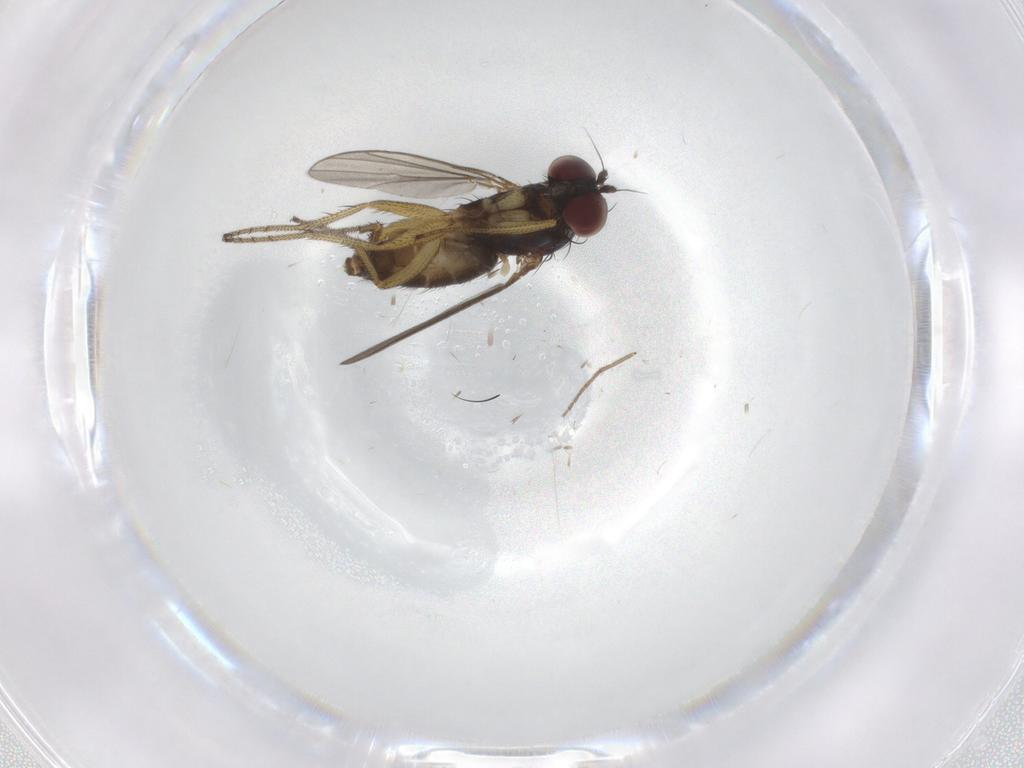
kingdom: Animalia
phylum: Arthropoda
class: Insecta
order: Diptera
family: Dolichopodidae
